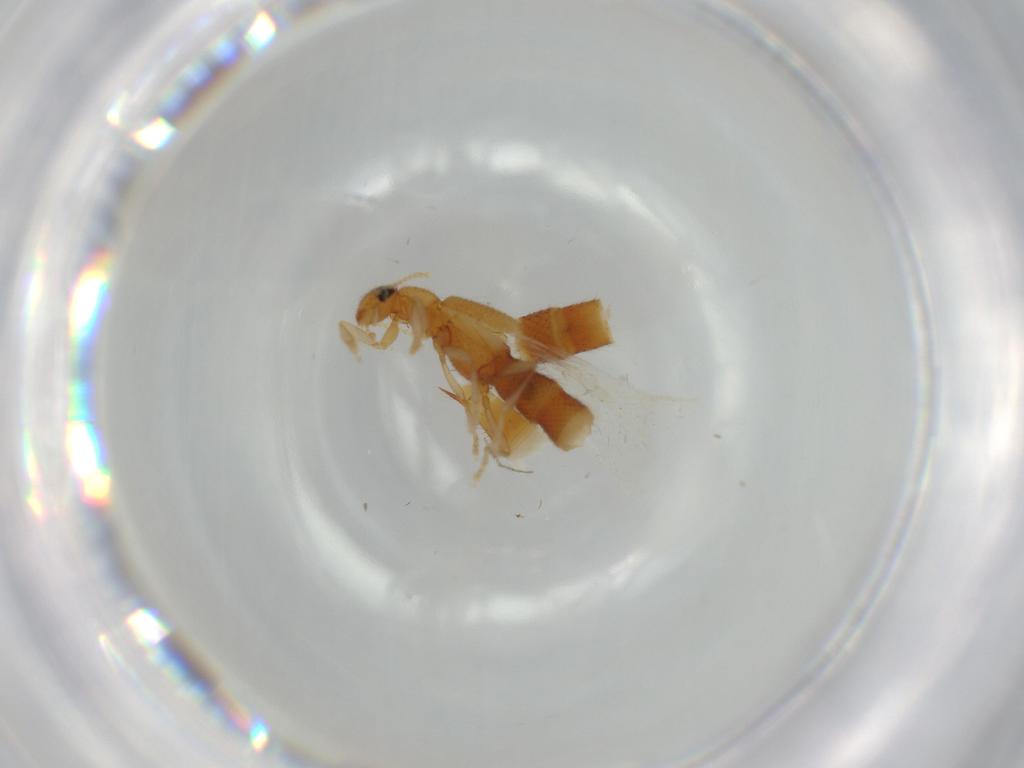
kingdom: Animalia
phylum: Arthropoda
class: Insecta
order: Coleoptera
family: Staphylinidae
